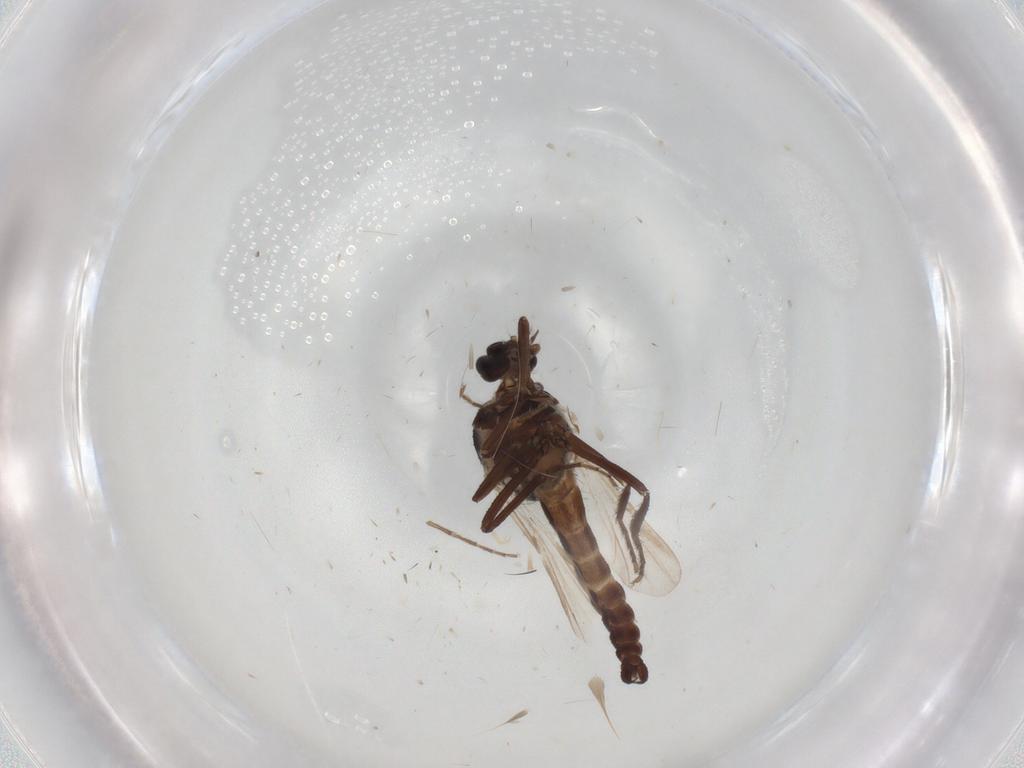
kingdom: Animalia
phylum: Arthropoda
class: Insecta
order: Diptera
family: Ceratopogonidae
